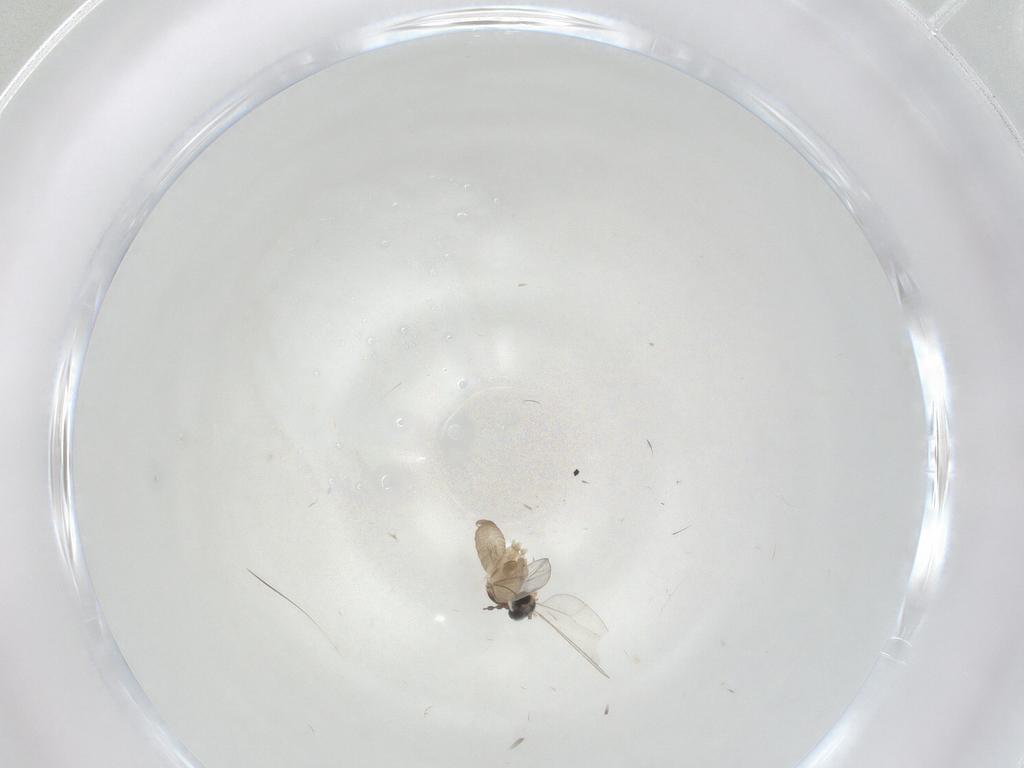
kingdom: Animalia
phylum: Arthropoda
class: Insecta
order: Diptera
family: Cecidomyiidae
